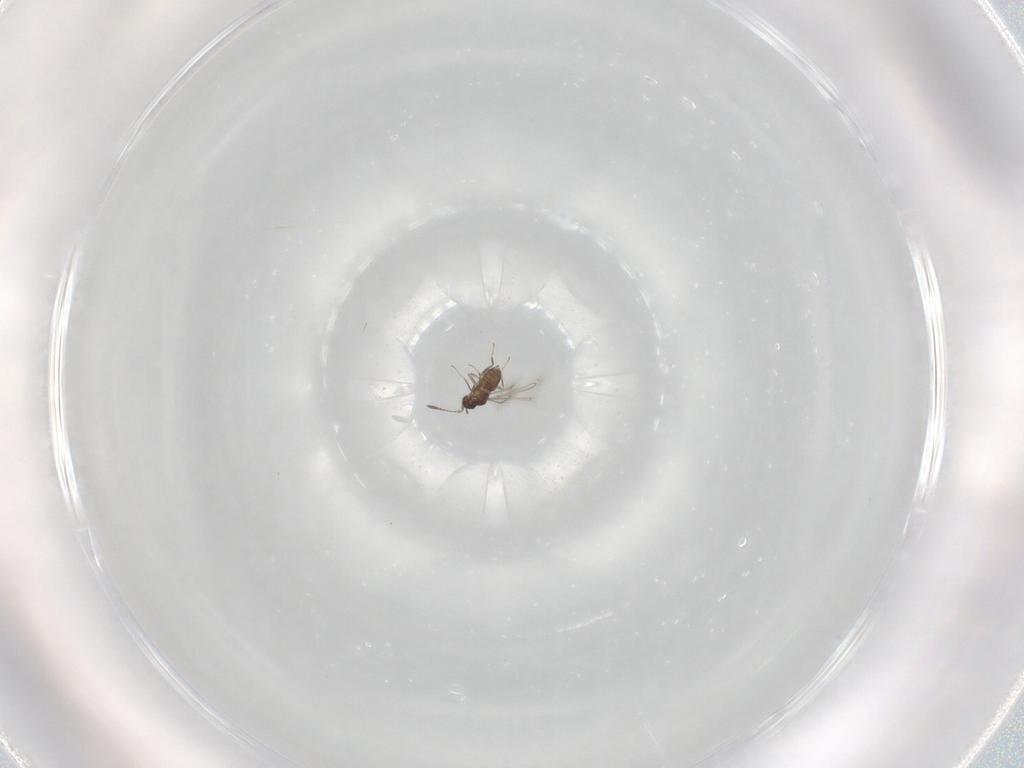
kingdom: Animalia
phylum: Arthropoda
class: Insecta
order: Hymenoptera
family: Mymaridae
